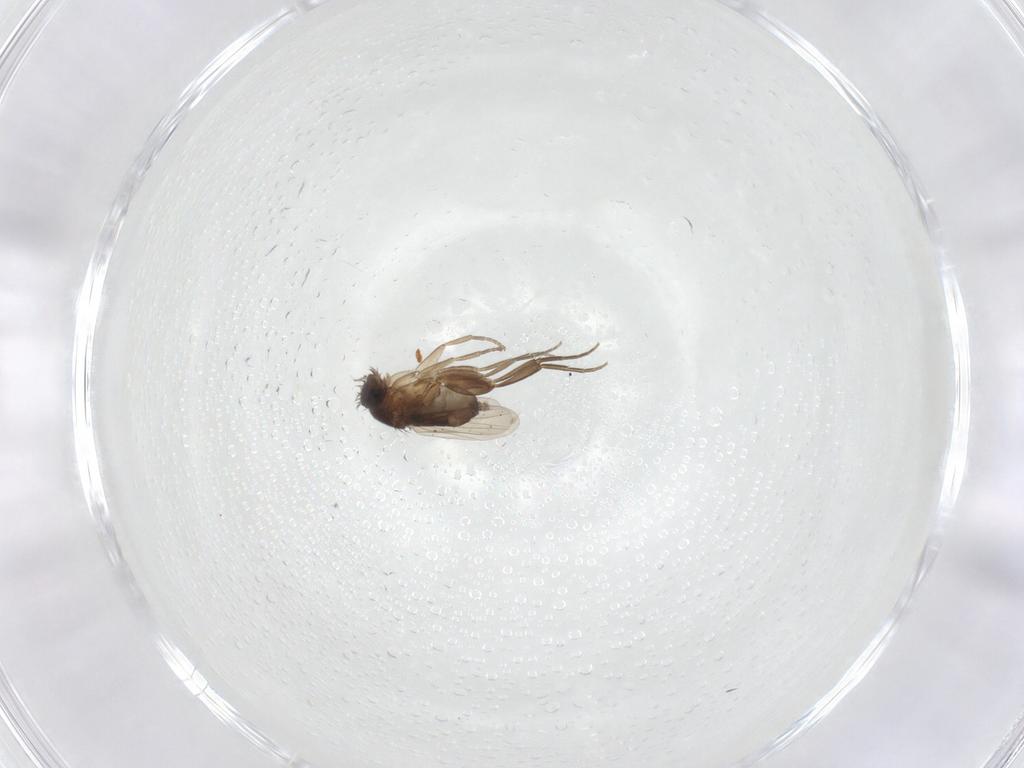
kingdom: Animalia
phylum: Arthropoda
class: Insecta
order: Diptera
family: Phoridae
